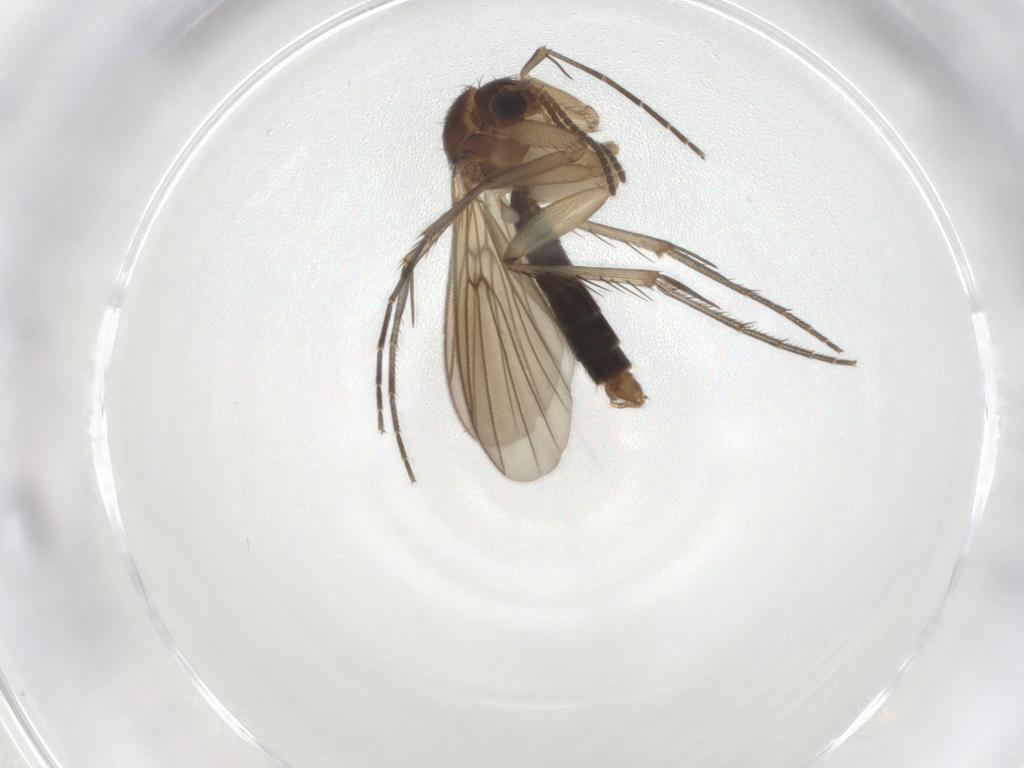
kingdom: Animalia
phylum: Arthropoda
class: Insecta
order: Diptera
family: Mycetophilidae
